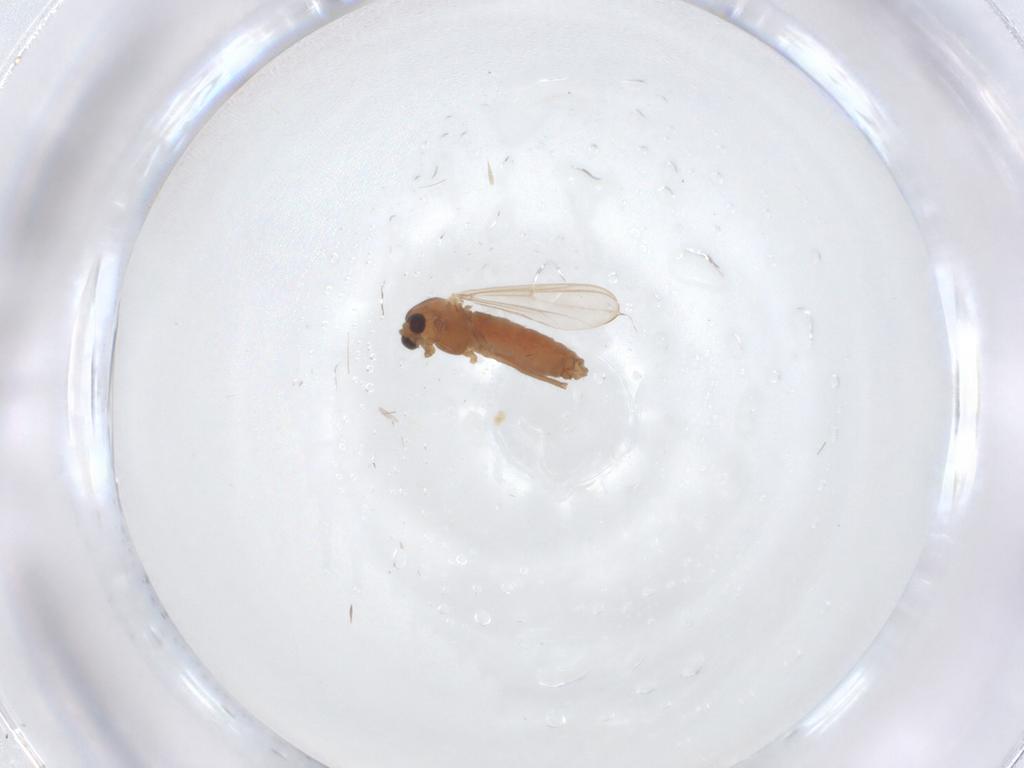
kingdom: Animalia
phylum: Arthropoda
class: Insecta
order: Diptera
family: Chironomidae
